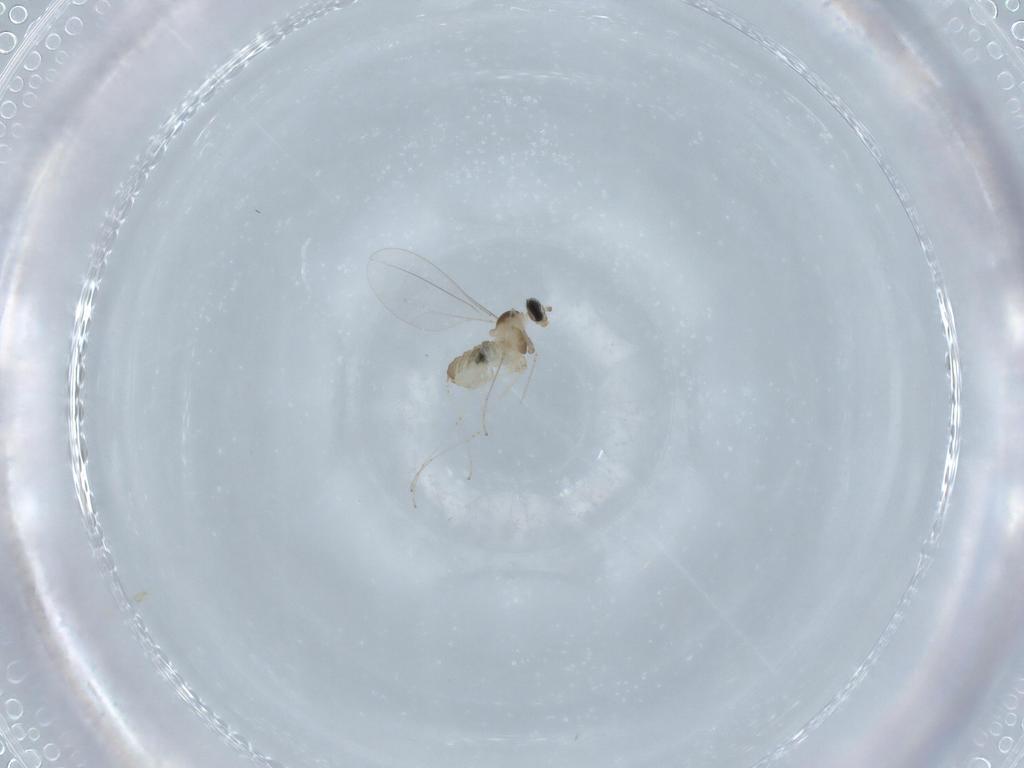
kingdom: Animalia
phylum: Arthropoda
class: Insecta
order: Diptera
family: Cecidomyiidae
